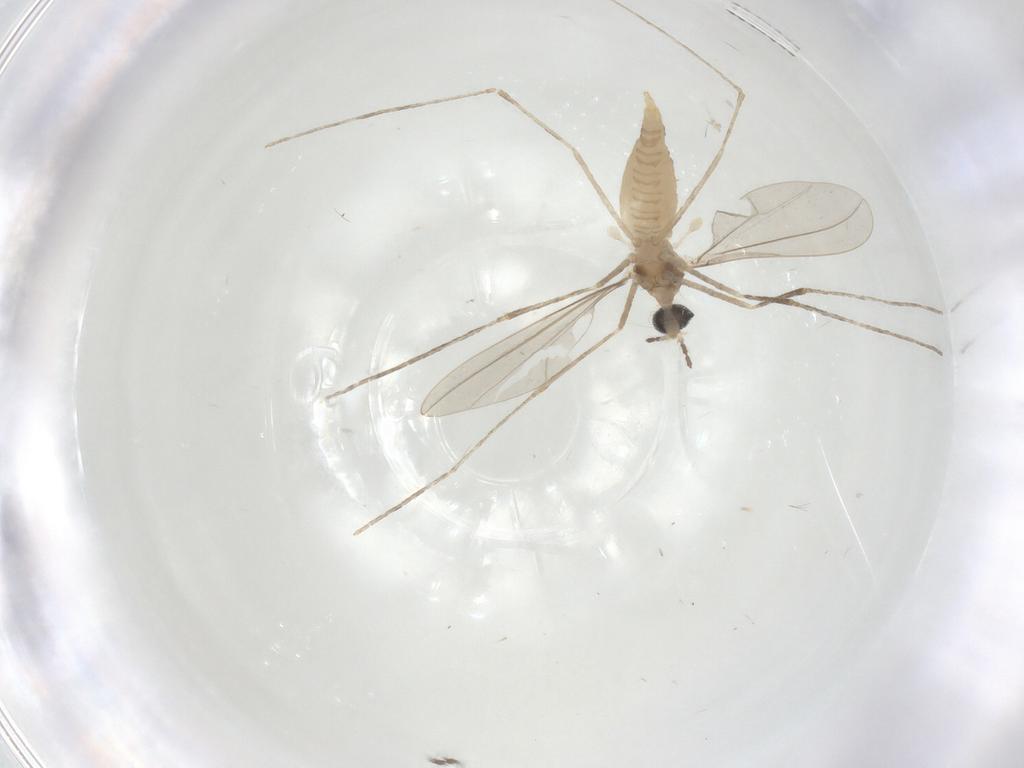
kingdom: Animalia
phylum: Arthropoda
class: Insecta
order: Diptera
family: Cecidomyiidae
